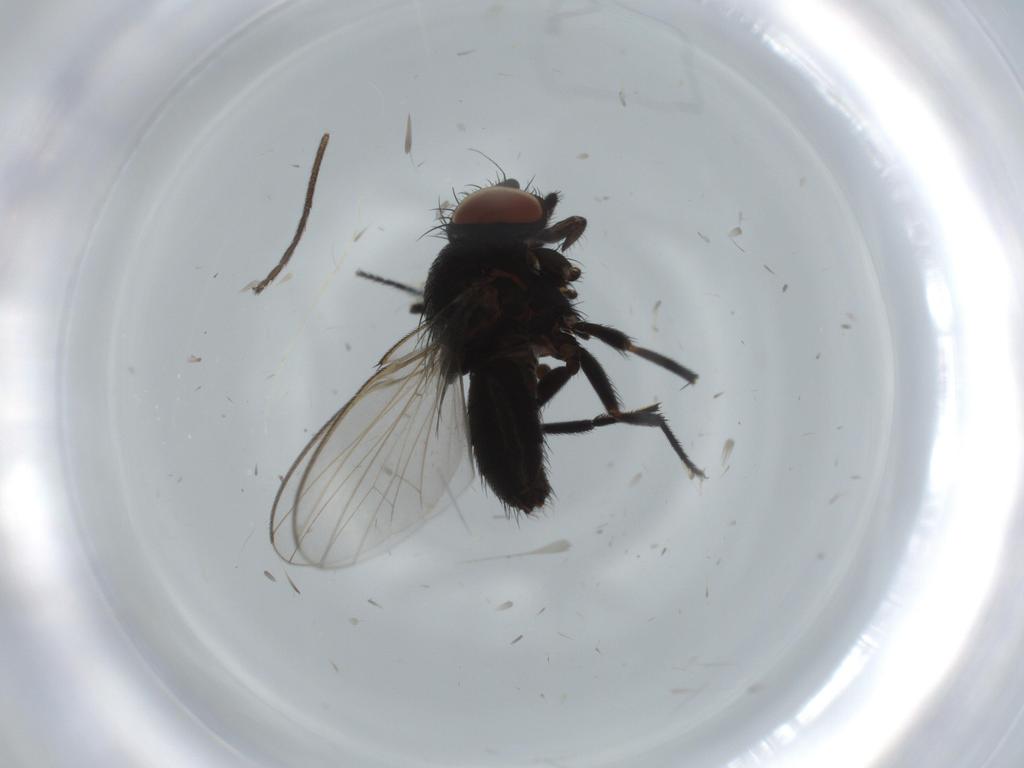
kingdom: Animalia
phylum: Arthropoda
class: Insecta
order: Diptera
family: Milichiidae
